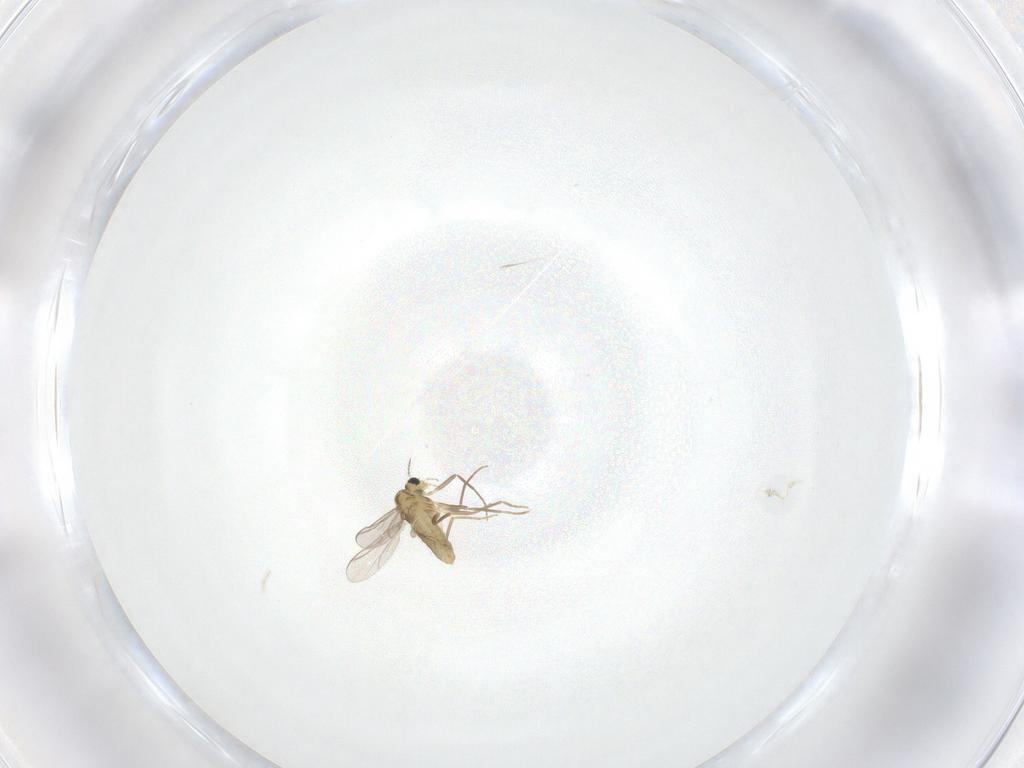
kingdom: Animalia
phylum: Arthropoda
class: Insecta
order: Diptera
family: Chironomidae
